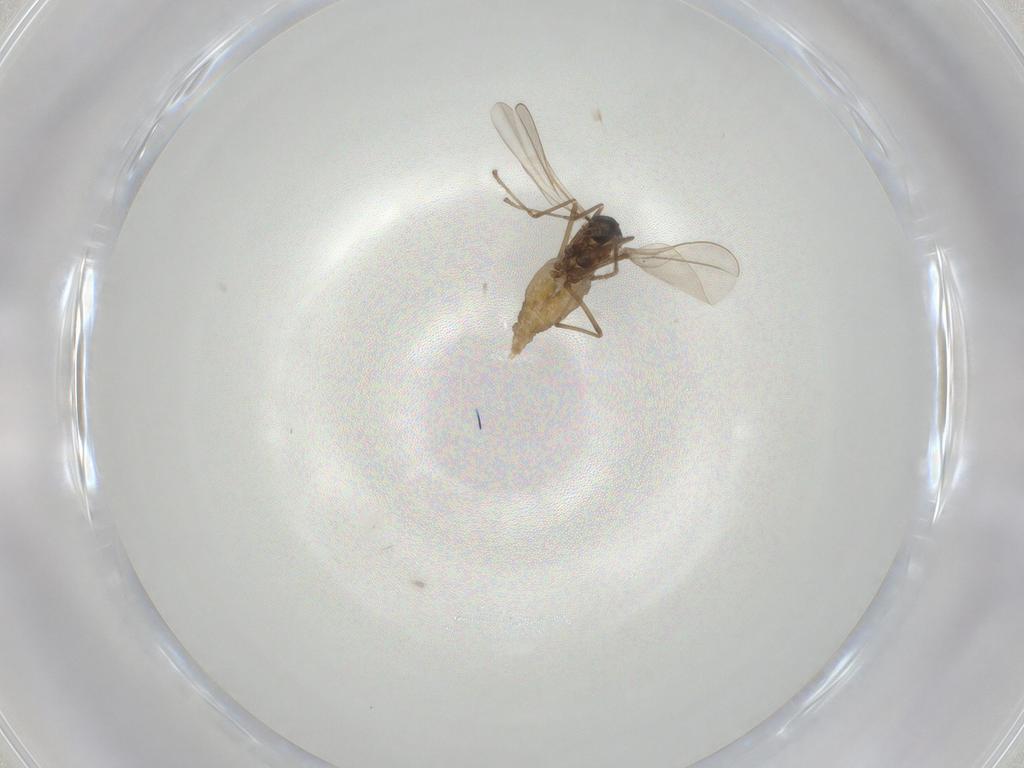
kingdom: Animalia
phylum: Arthropoda
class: Insecta
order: Diptera
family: Cecidomyiidae
